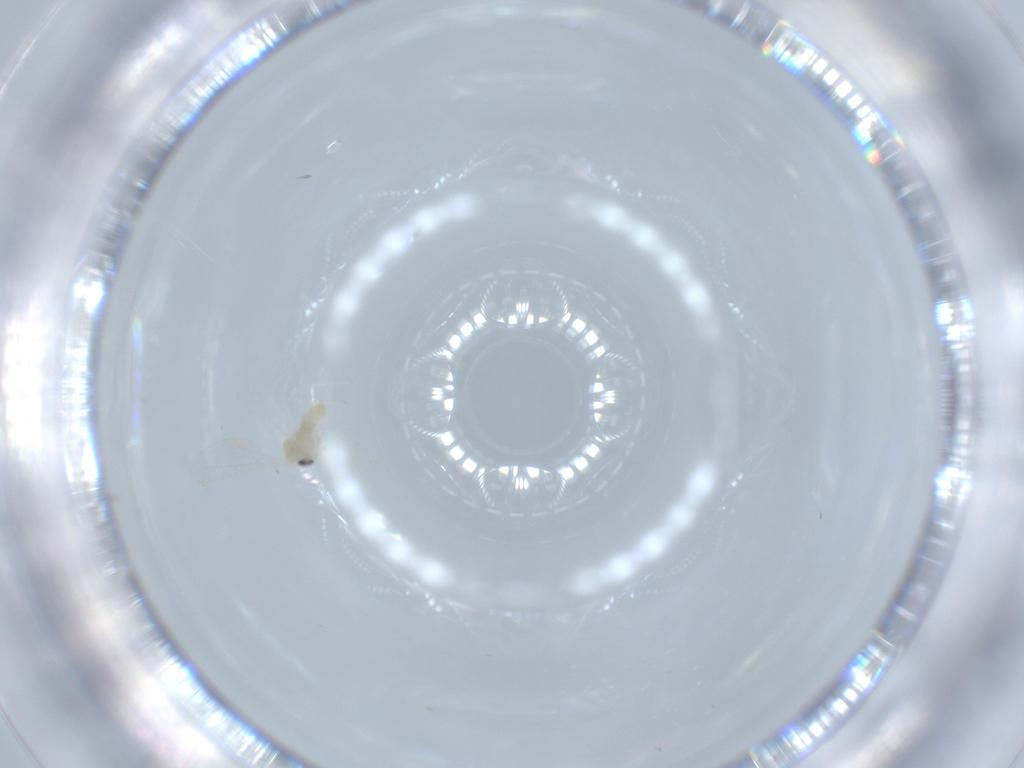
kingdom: Animalia
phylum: Arthropoda
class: Insecta
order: Diptera
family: Cecidomyiidae
